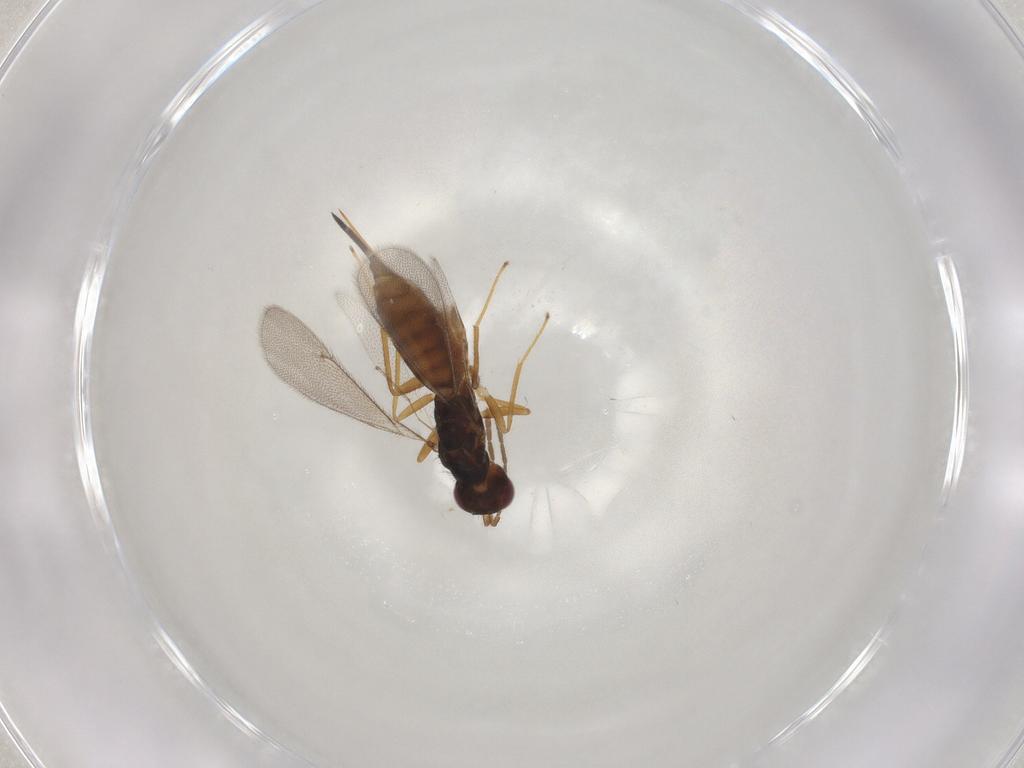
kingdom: Animalia
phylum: Arthropoda
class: Insecta
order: Hymenoptera
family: Eulophidae
